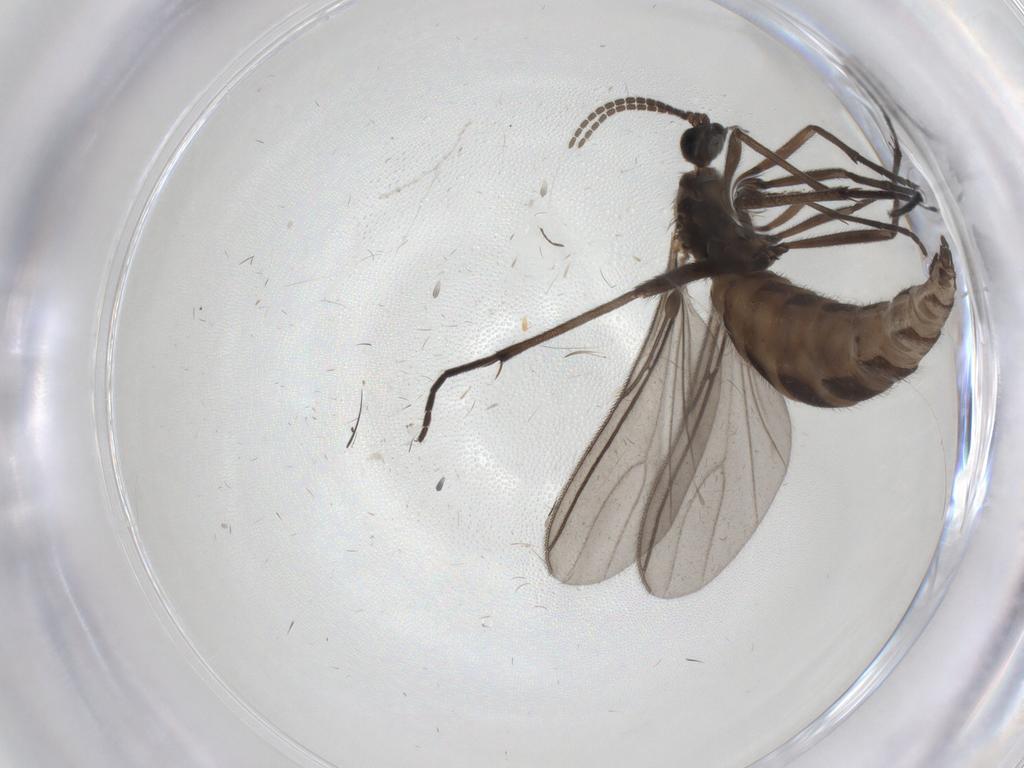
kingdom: Animalia
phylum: Arthropoda
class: Insecta
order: Diptera
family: Sciaridae
